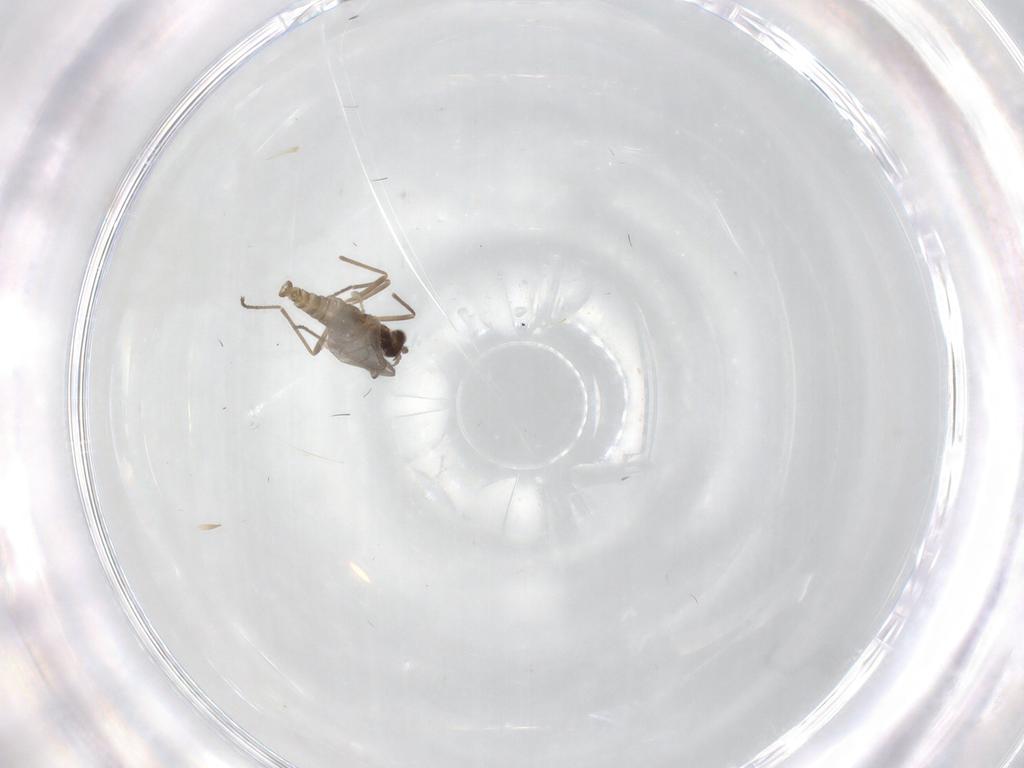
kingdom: Animalia
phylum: Arthropoda
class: Insecta
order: Diptera
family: Cecidomyiidae
